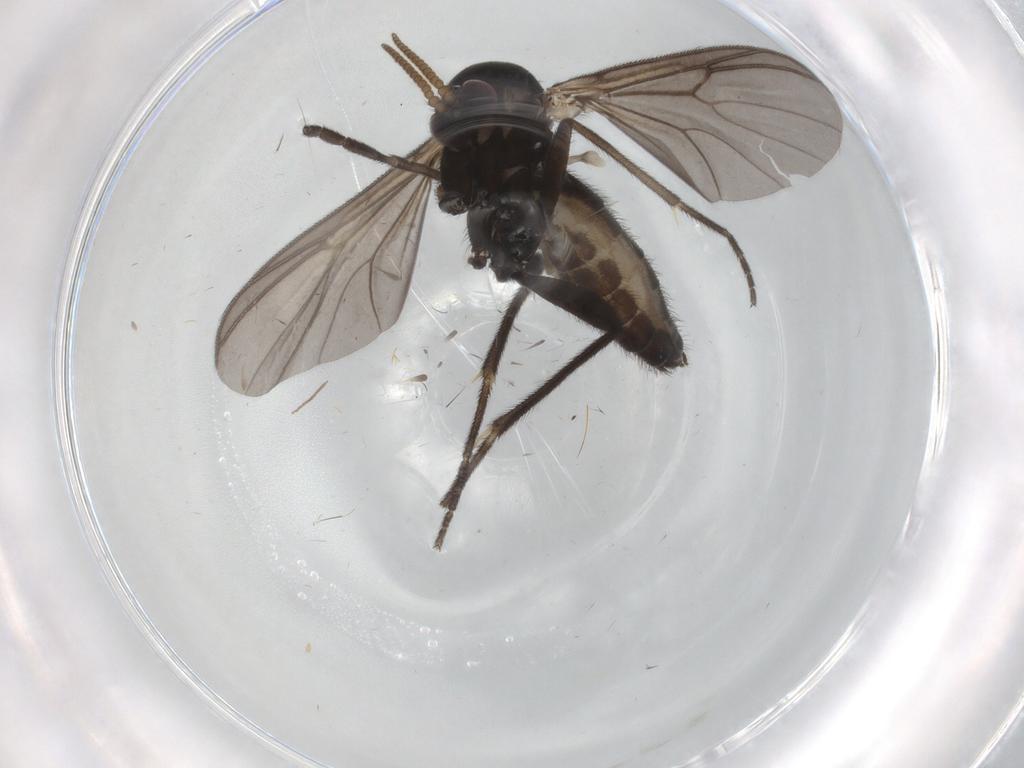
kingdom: Animalia
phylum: Arthropoda
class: Insecta
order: Diptera
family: Mycetophilidae
